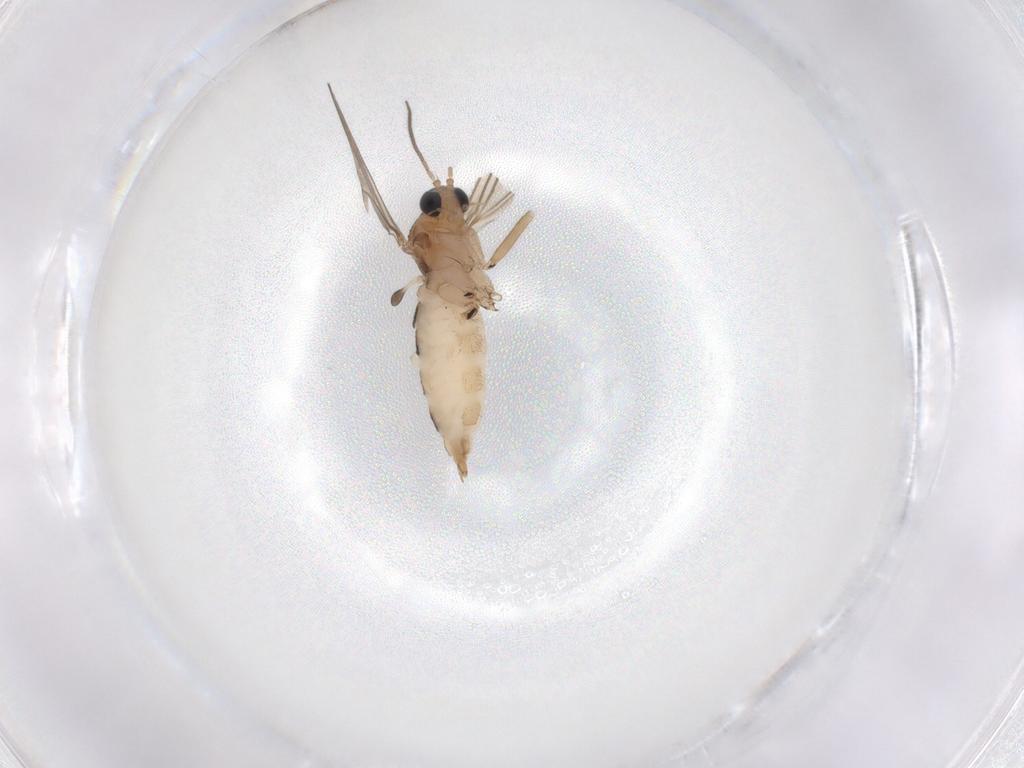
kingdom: Animalia
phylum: Arthropoda
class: Insecta
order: Diptera
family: Sciaridae
